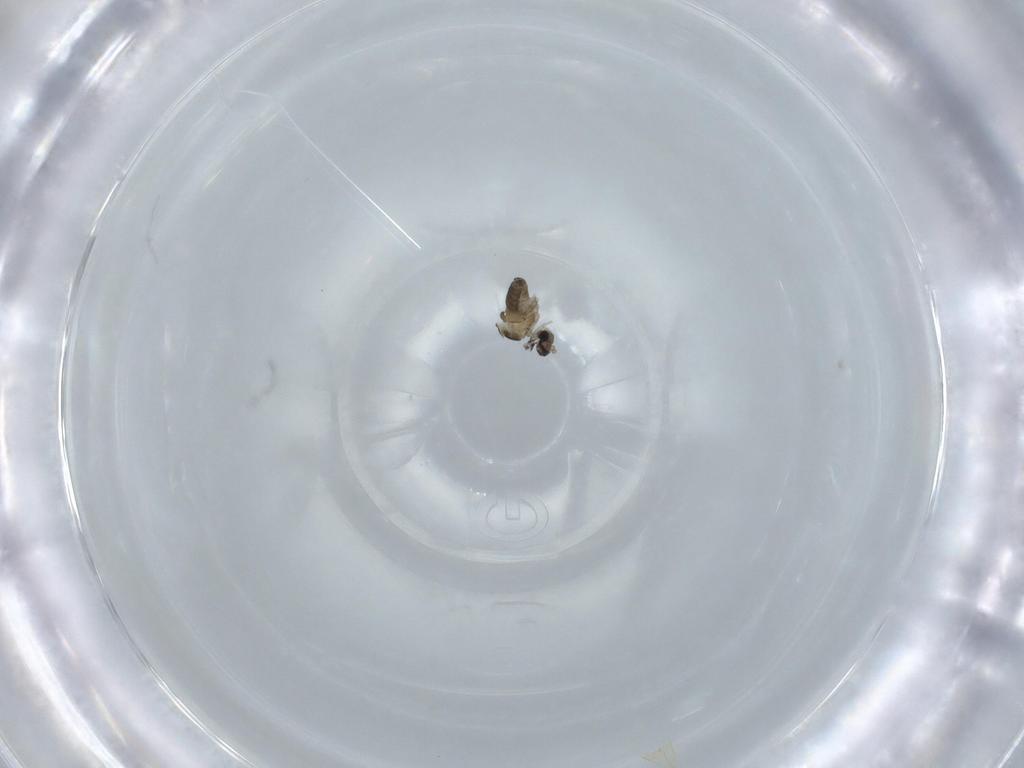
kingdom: Animalia
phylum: Arthropoda
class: Insecta
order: Diptera
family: Cecidomyiidae
